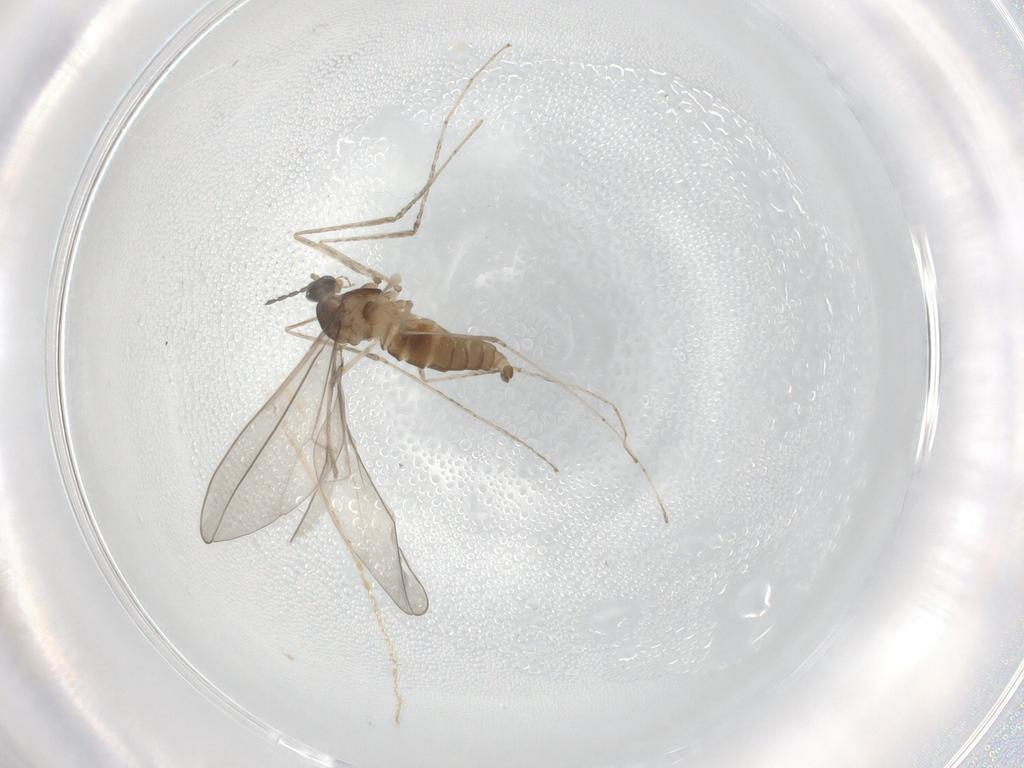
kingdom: Animalia
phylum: Arthropoda
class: Insecta
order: Diptera
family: Cecidomyiidae
